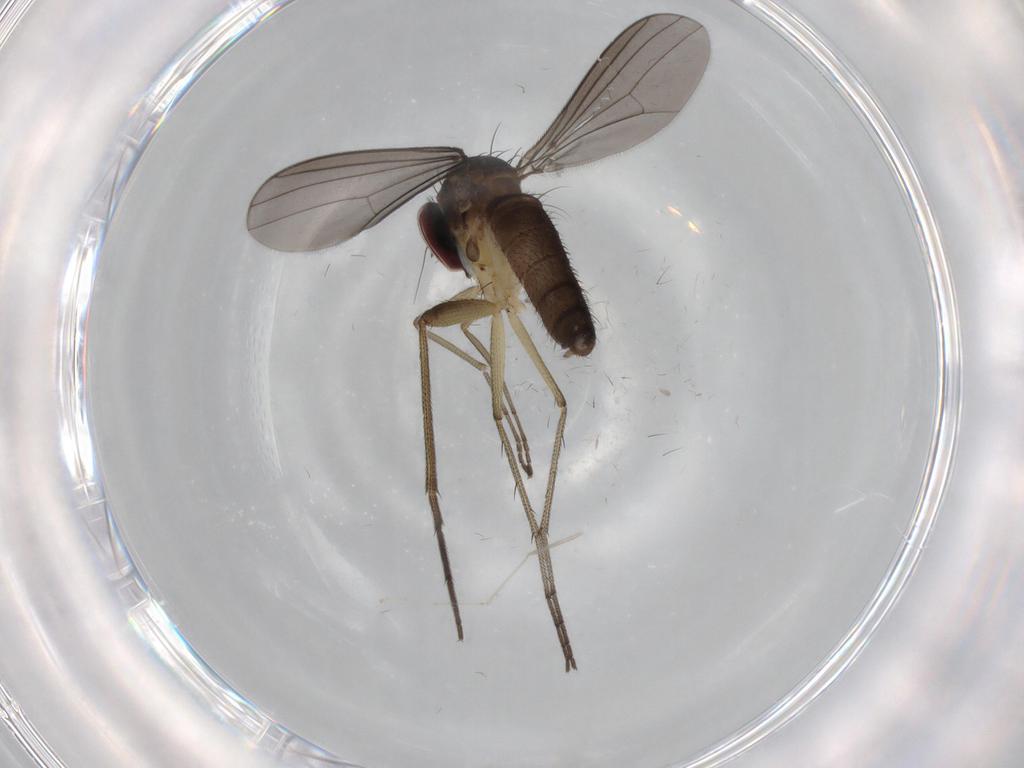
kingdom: Animalia
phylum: Arthropoda
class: Insecta
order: Diptera
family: Dolichopodidae
